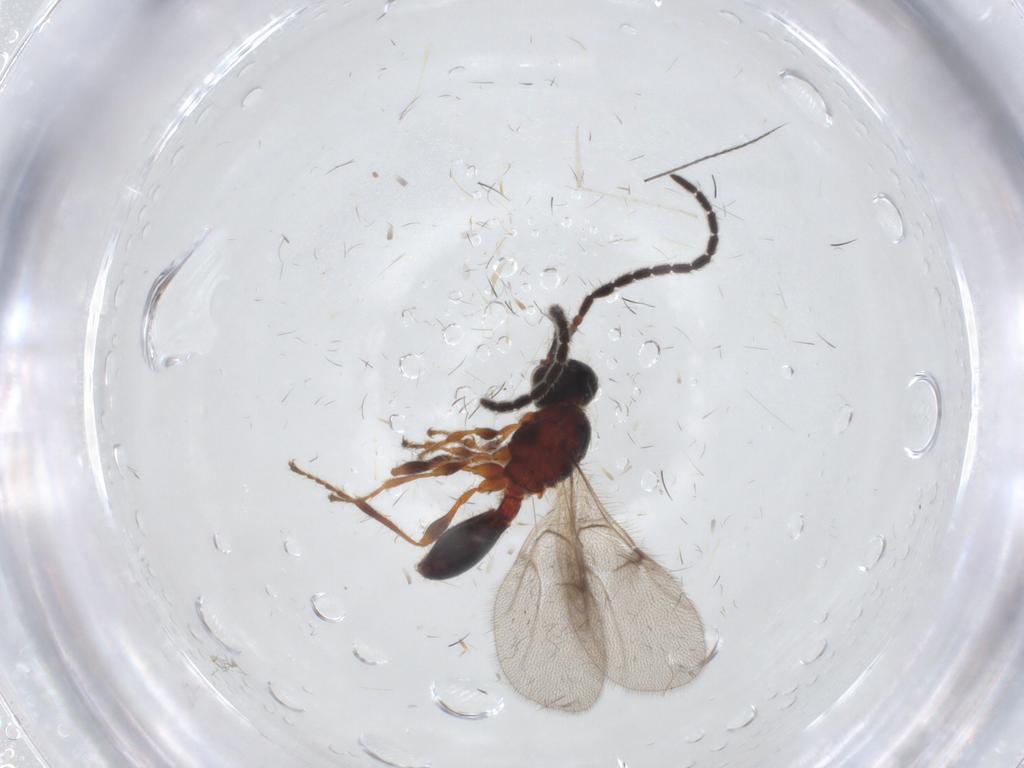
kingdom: Animalia
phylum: Arthropoda
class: Insecta
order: Hymenoptera
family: Diapriidae
